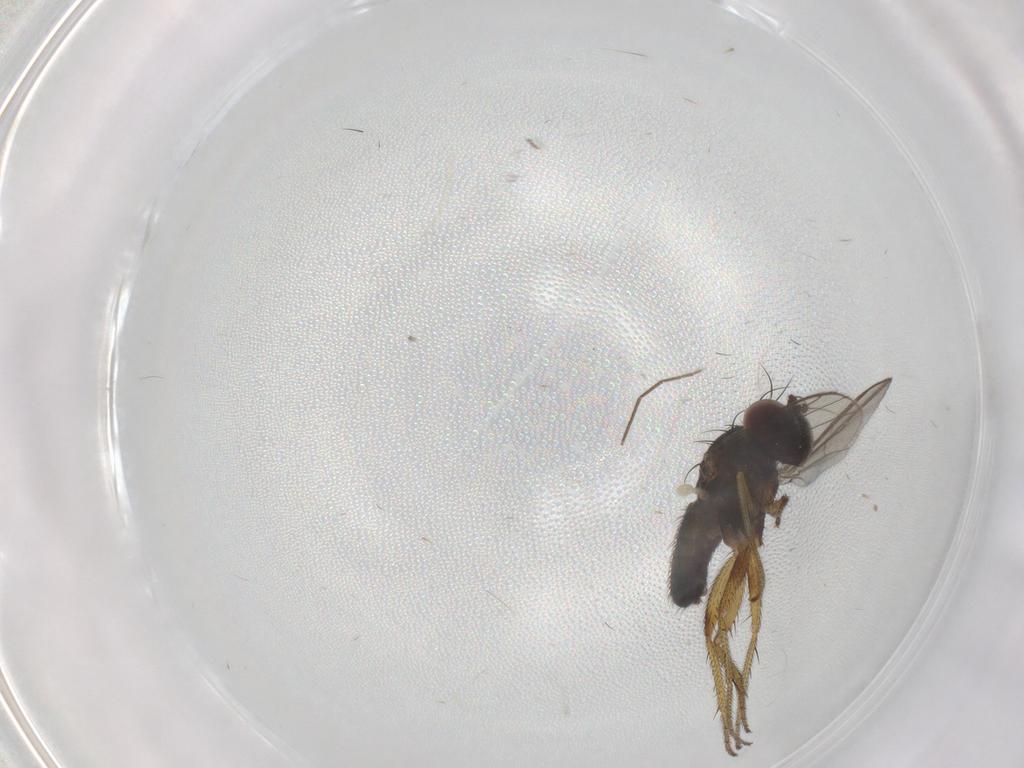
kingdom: Animalia
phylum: Arthropoda
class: Insecta
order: Diptera
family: Chironomidae
